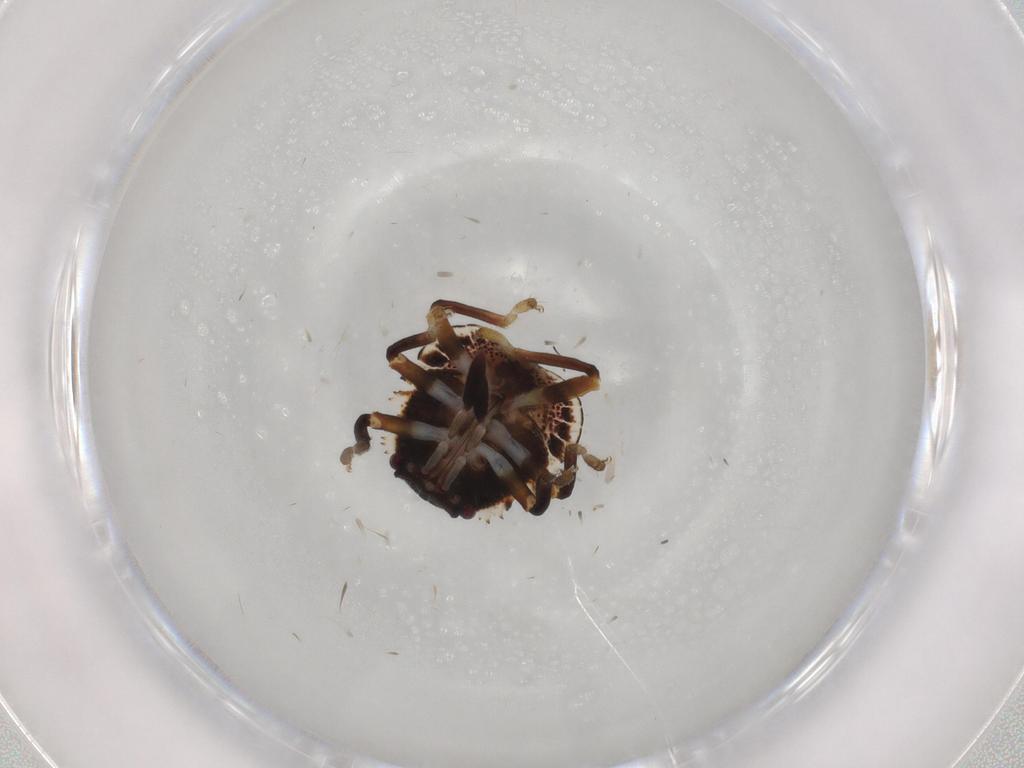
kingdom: Animalia
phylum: Arthropoda
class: Insecta
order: Hemiptera
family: Pentatomidae
